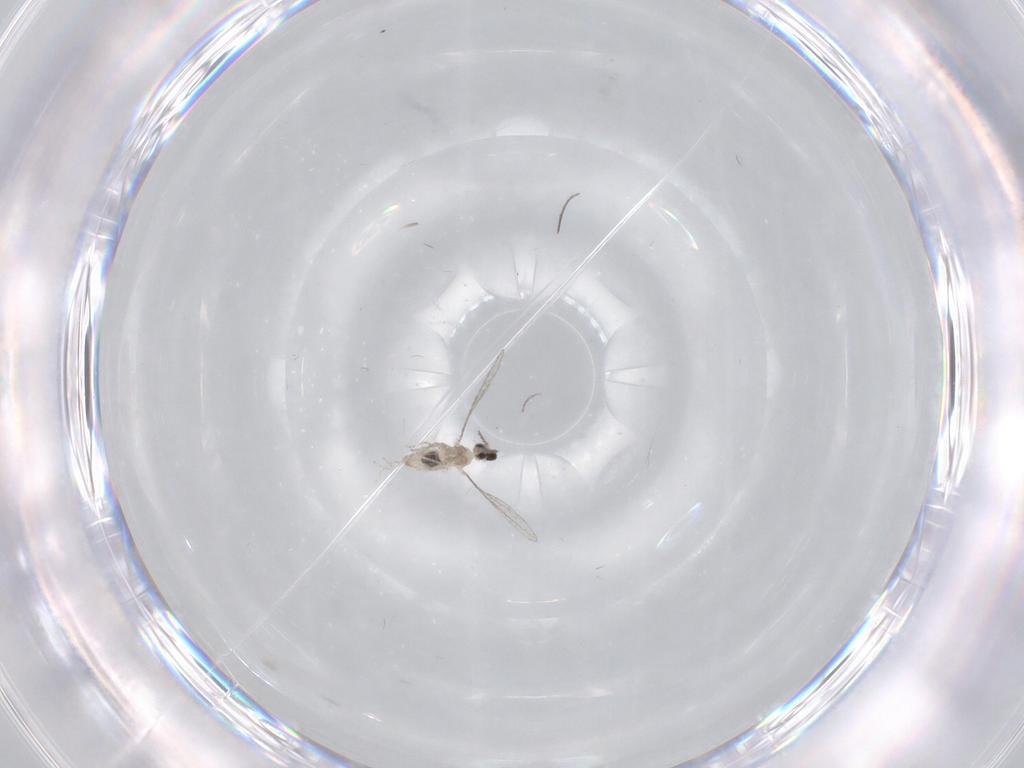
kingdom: Animalia
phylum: Arthropoda
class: Insecta
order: Diptera
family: Cecidomyiidae
